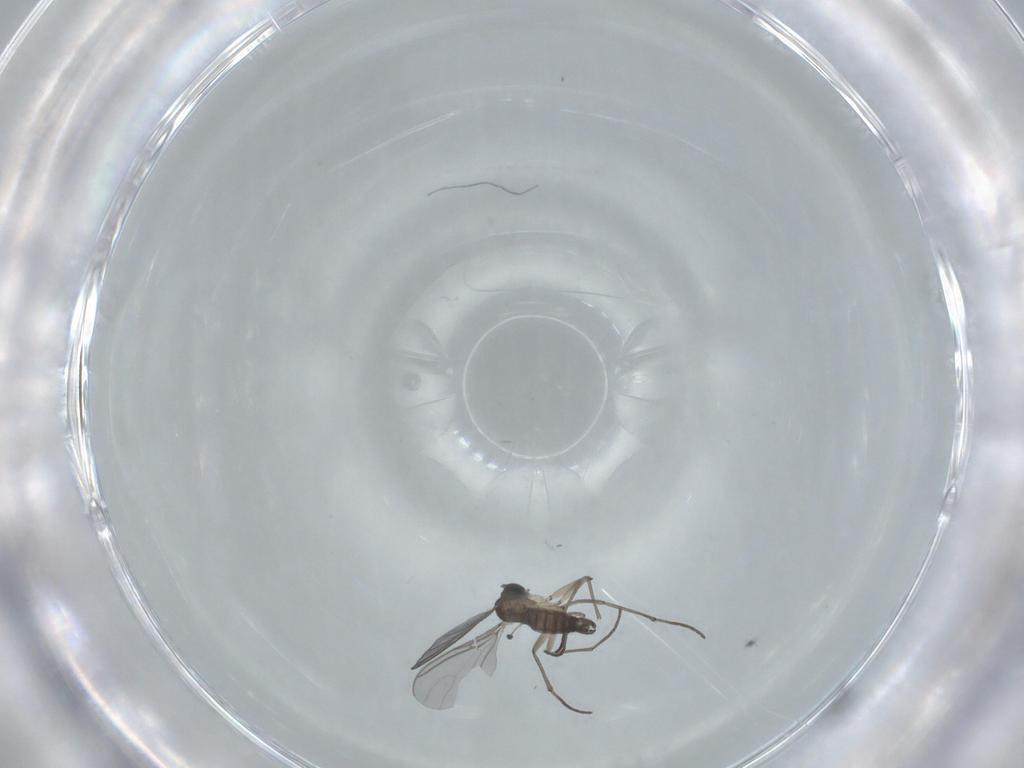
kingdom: Animalia
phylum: Arthropoda
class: Insecta
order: Diptera
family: Sciaridae
